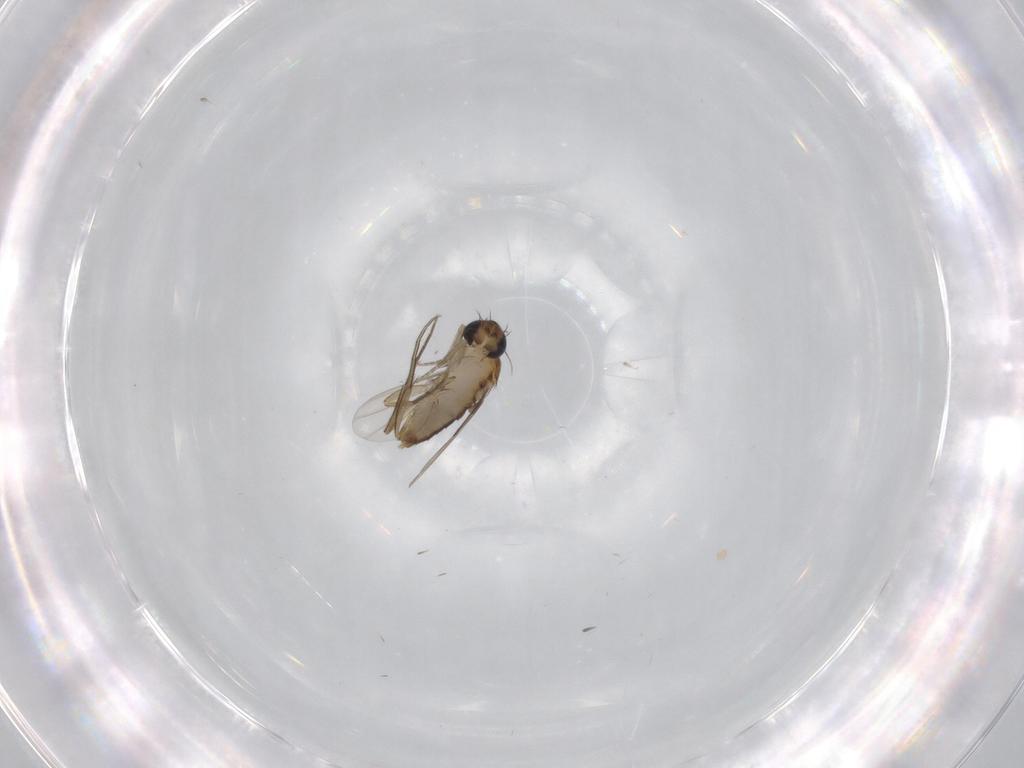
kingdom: Animalia
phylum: Arthropoda
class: Insecta
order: Diptera
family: Phoridae
